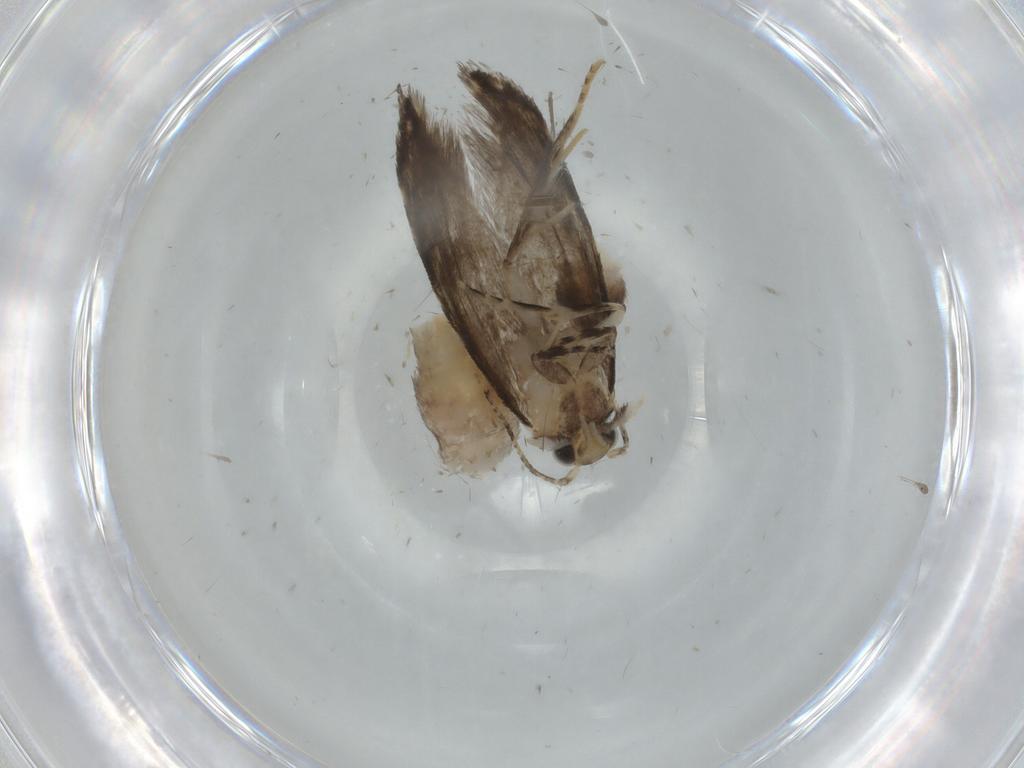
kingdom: Animalia
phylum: Arthropoda
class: Insecta
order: Lepidoptera
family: Tineidae
